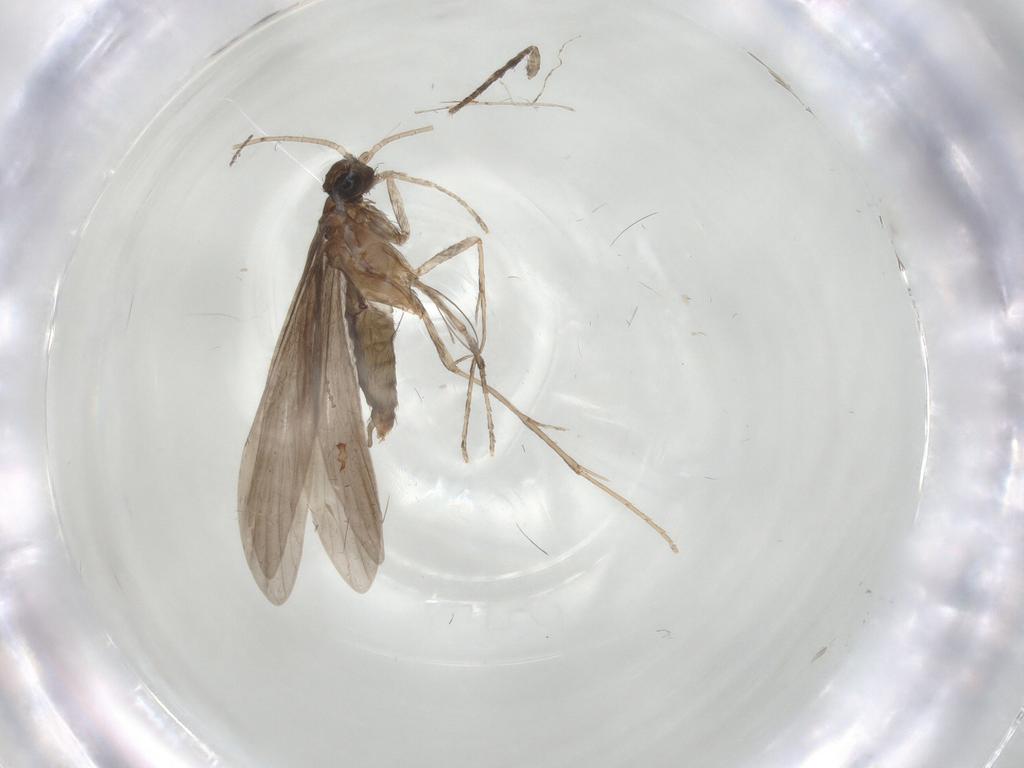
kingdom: Animalia
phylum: Arthropoda
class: Insecta
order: Diptera
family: Cecidomyiidae
